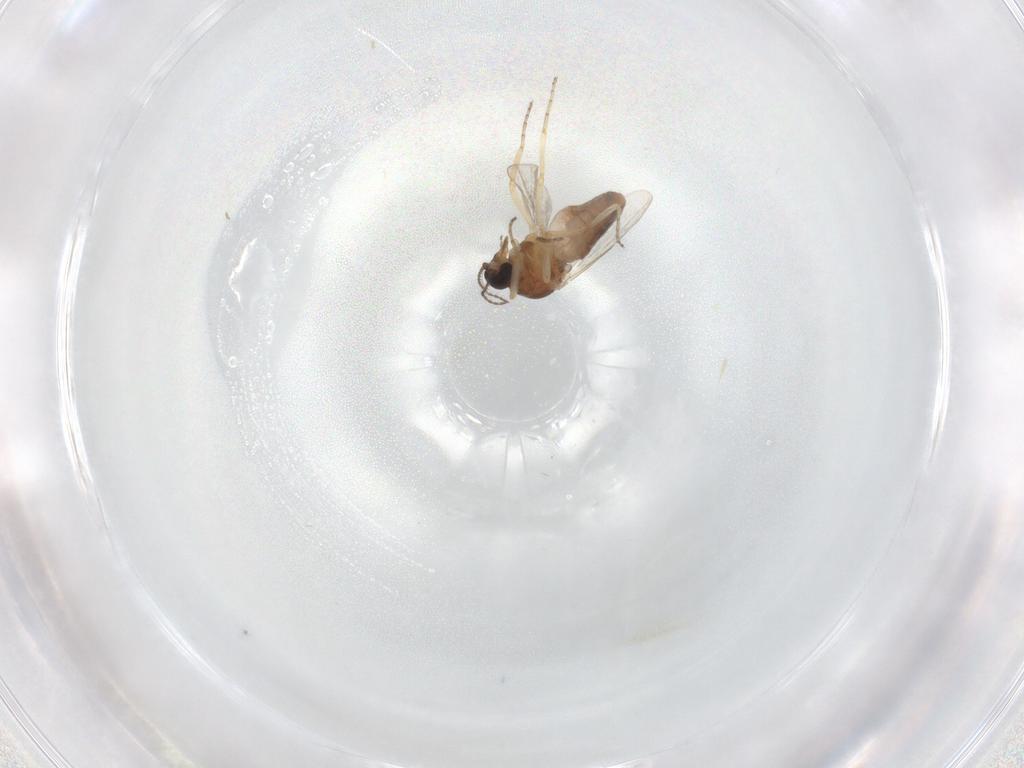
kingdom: Animalia
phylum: Arthropoda
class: Insecta
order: Diptera
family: Ceratopogonidae
